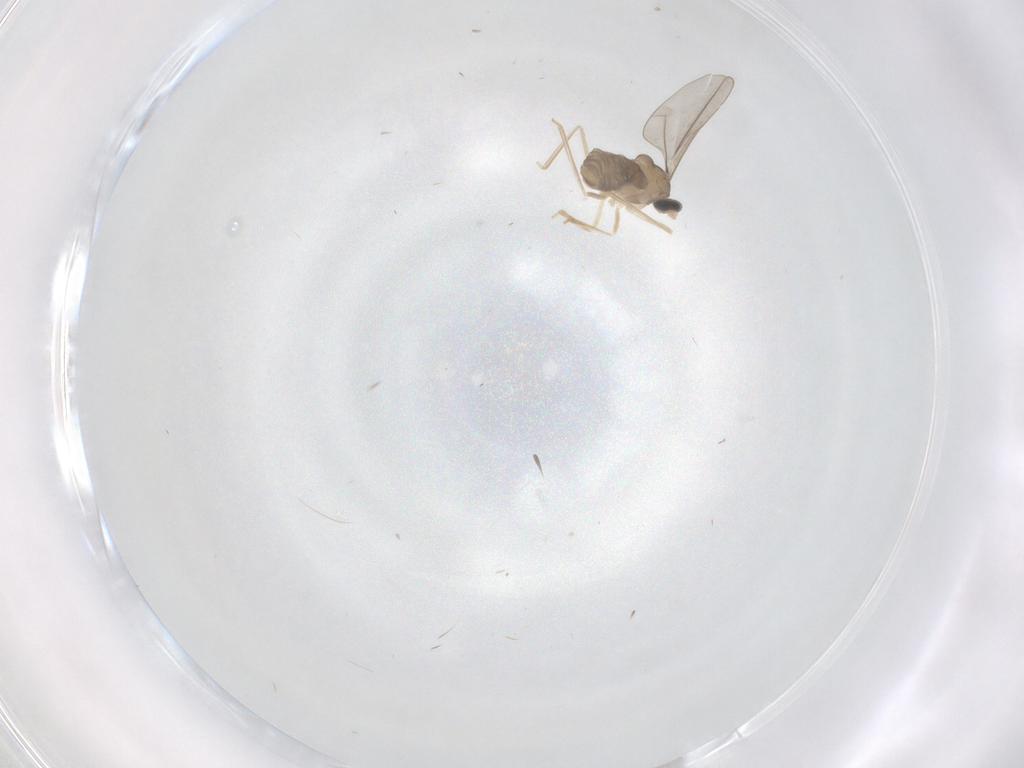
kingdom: Animalia
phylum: Arthropoda
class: Insecta
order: Diptera
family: Cecidomyiidae
